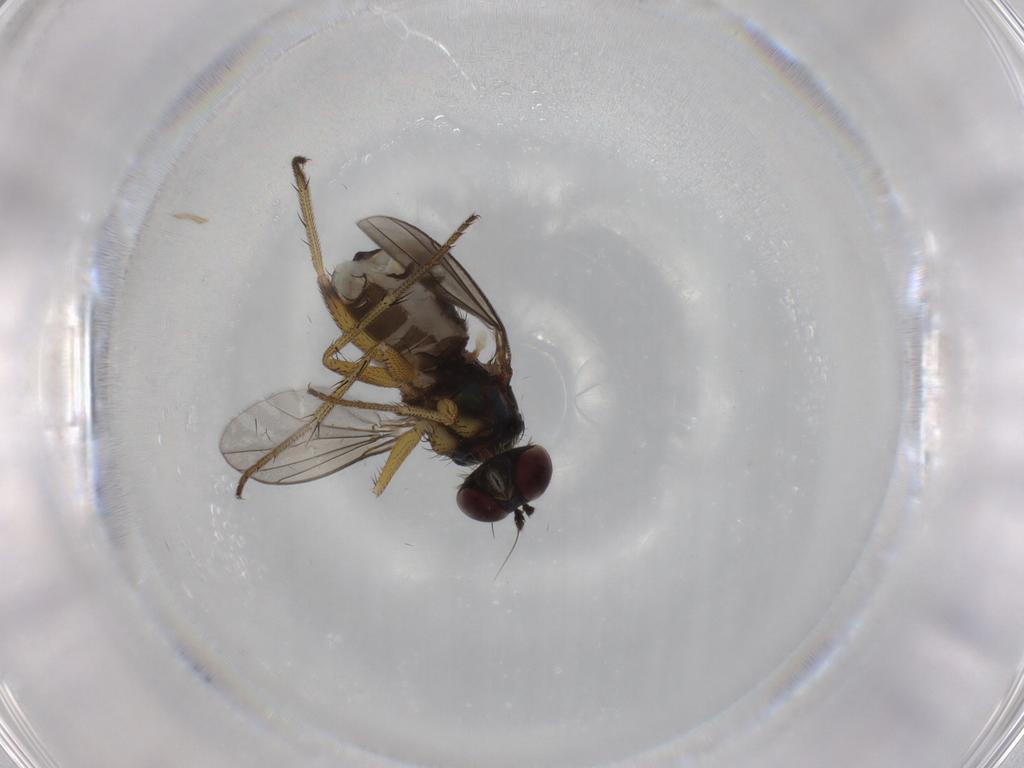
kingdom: Animalia
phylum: Arthropoda
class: Insecta
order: Diptera
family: Dolichopodidae
